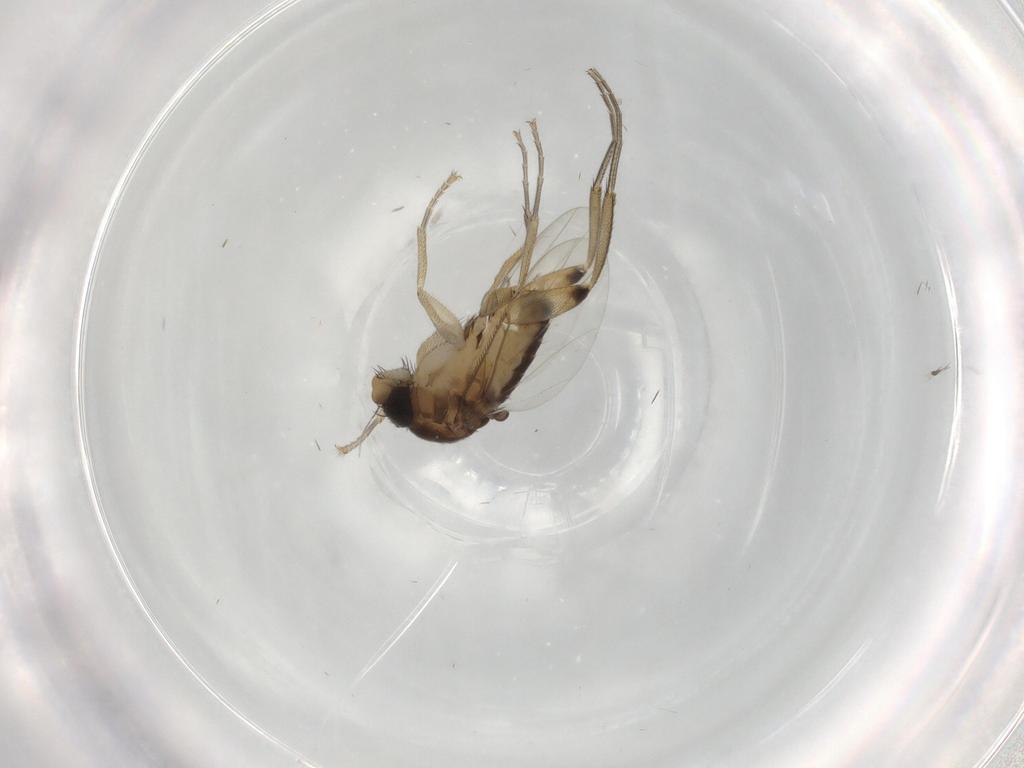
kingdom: Animalia
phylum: Arthropoda
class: Insecta
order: Diptera
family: Phoridae
